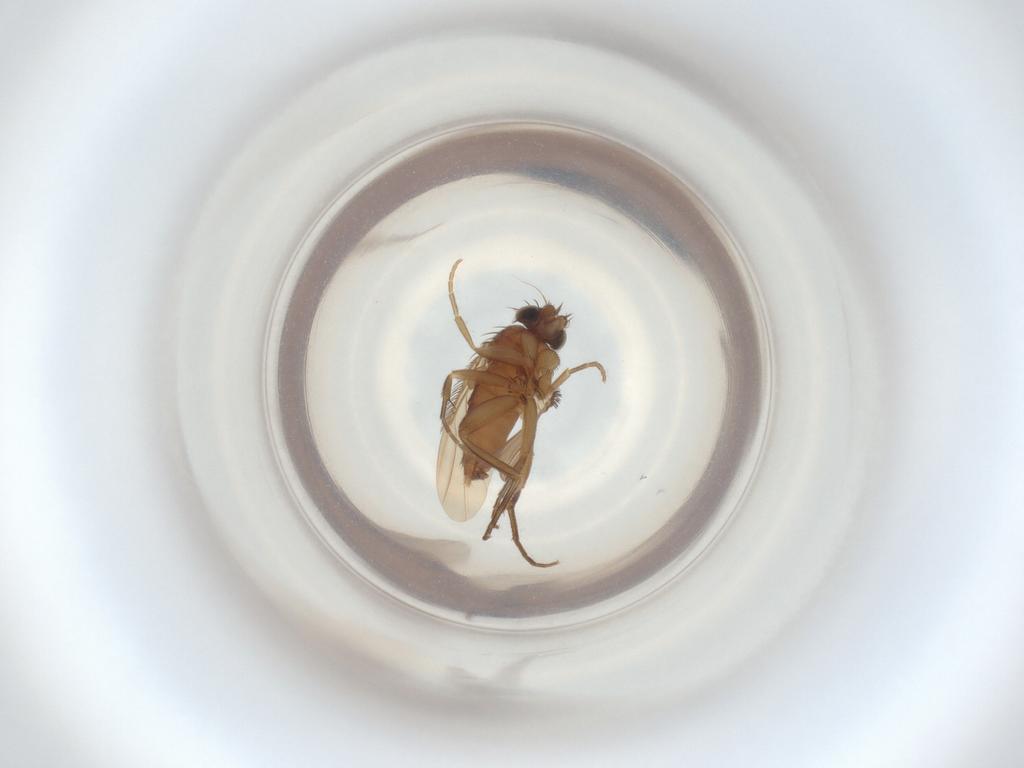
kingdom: Animalia
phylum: Arthropoda
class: Insecta
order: Diptera
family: Phoridae
